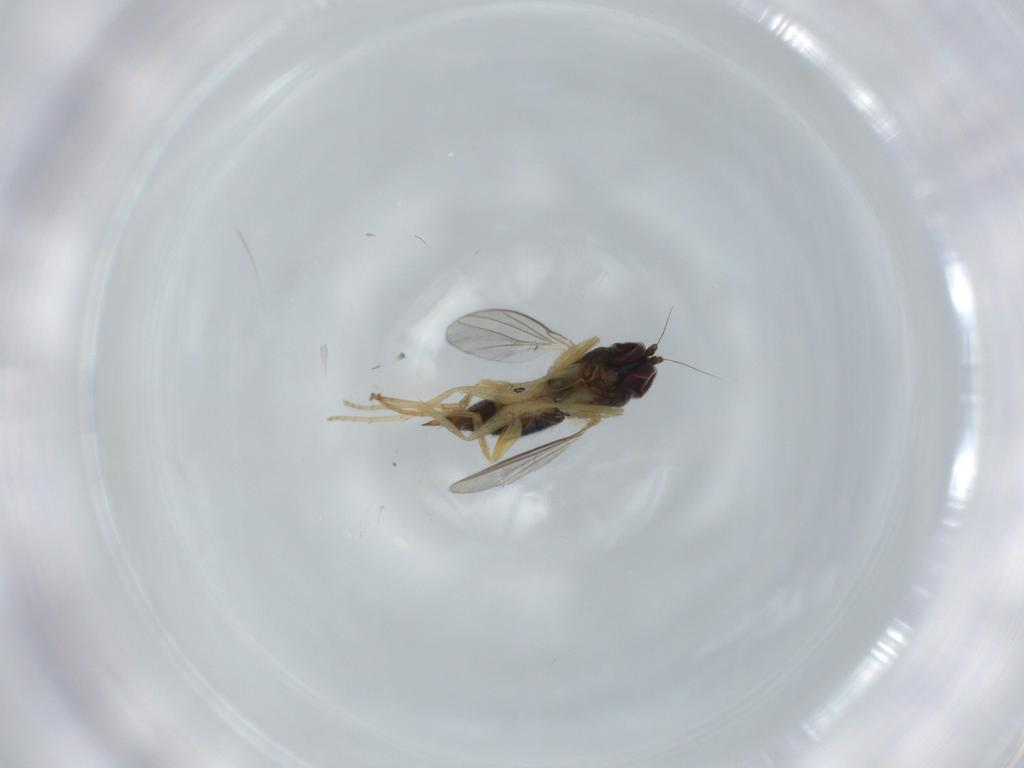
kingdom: Animalia
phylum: Arthropoda
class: Insecta
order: Diptera
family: Dolichopodidae
